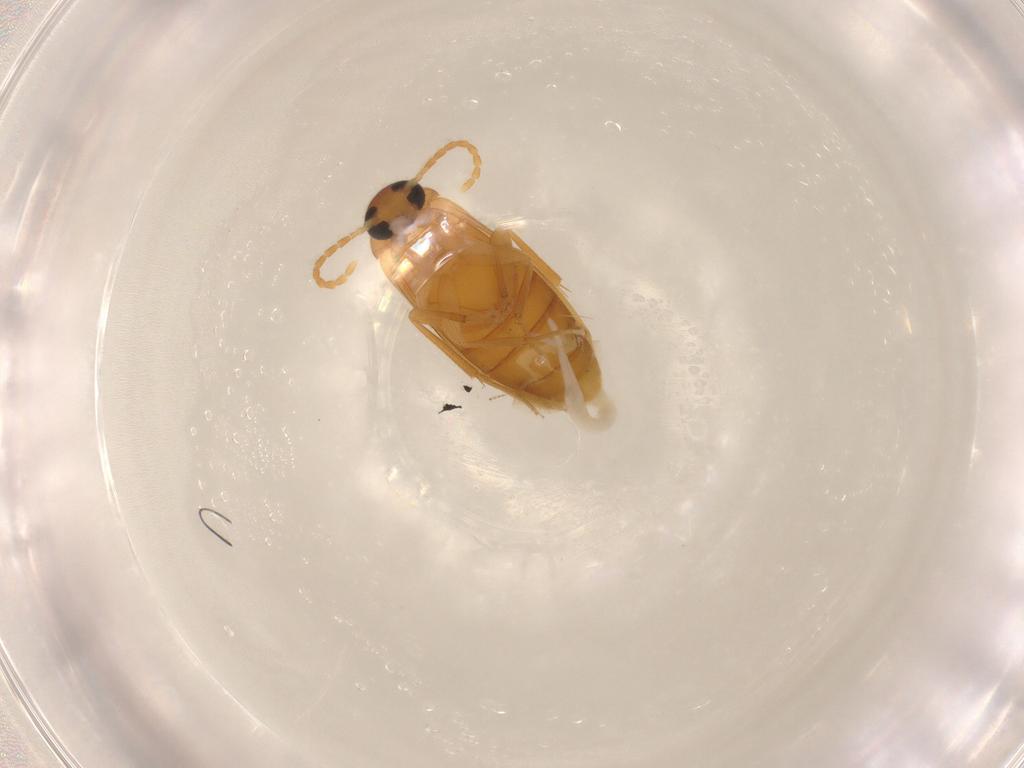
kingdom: Animalia
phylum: Arthropoda
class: Insecta
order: Coleoptera
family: Scraptiidae
